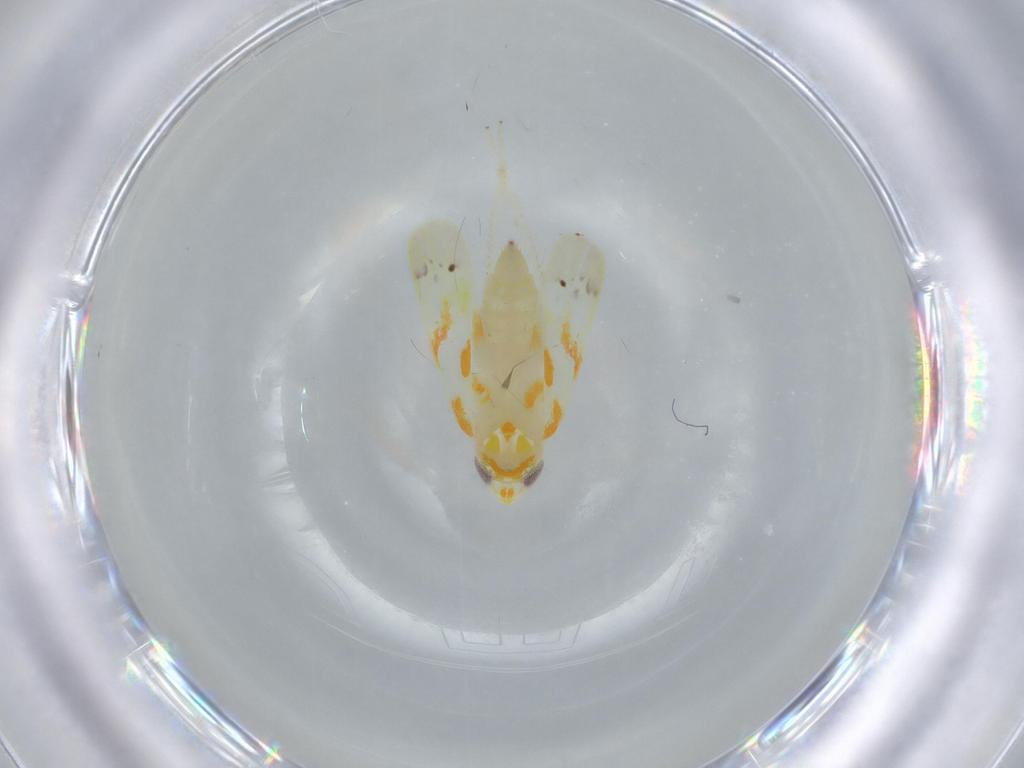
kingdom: Animalia
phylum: Arthropoda
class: Insecta
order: Hemiptera
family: Cicadellidae
